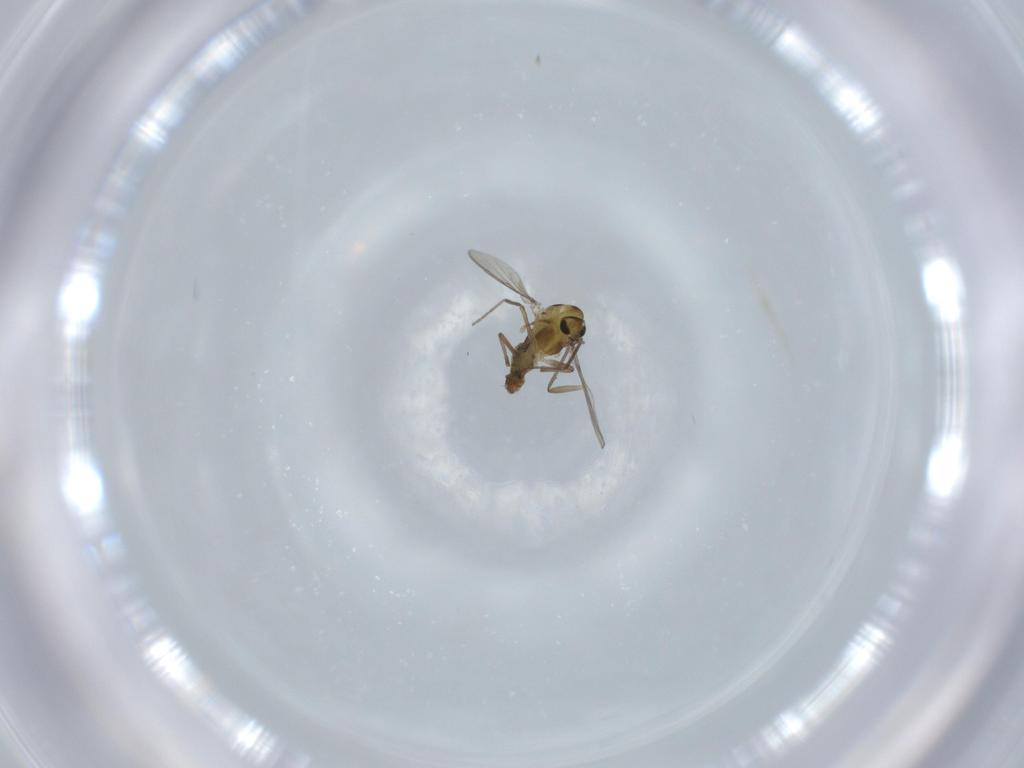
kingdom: Animalia
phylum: Arthropoda
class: Insecta
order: Diptera
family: Chironomidae
